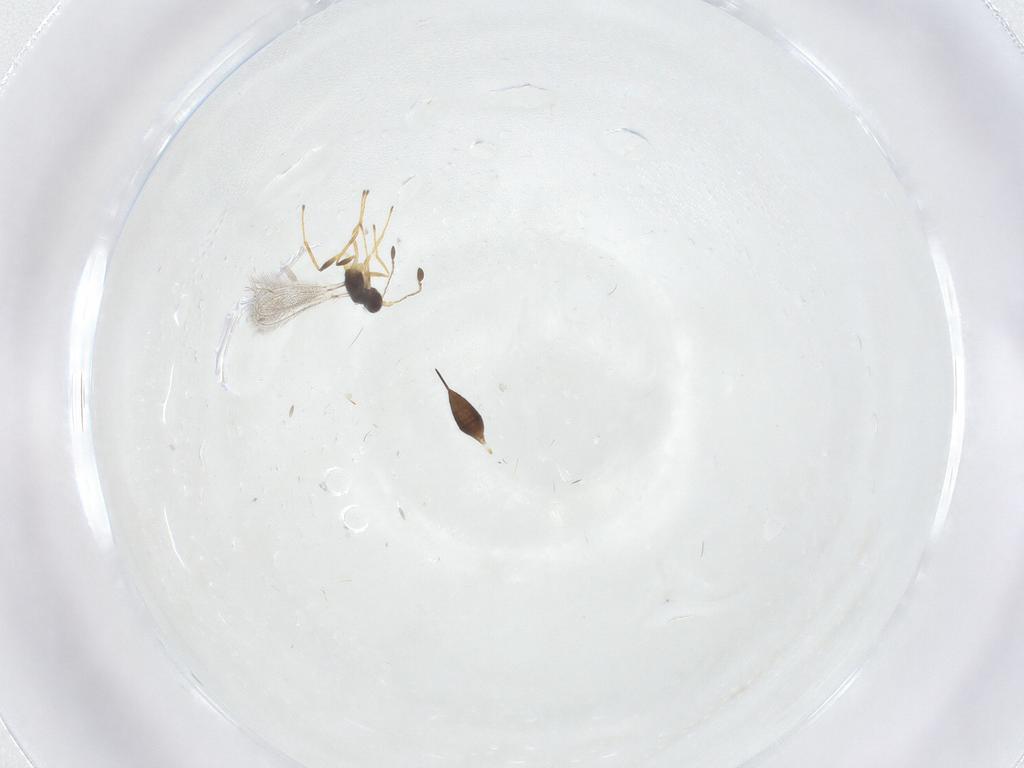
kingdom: Animalia
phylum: Arthropoda
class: Insecta
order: Hymenoptera
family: Mymaridae
